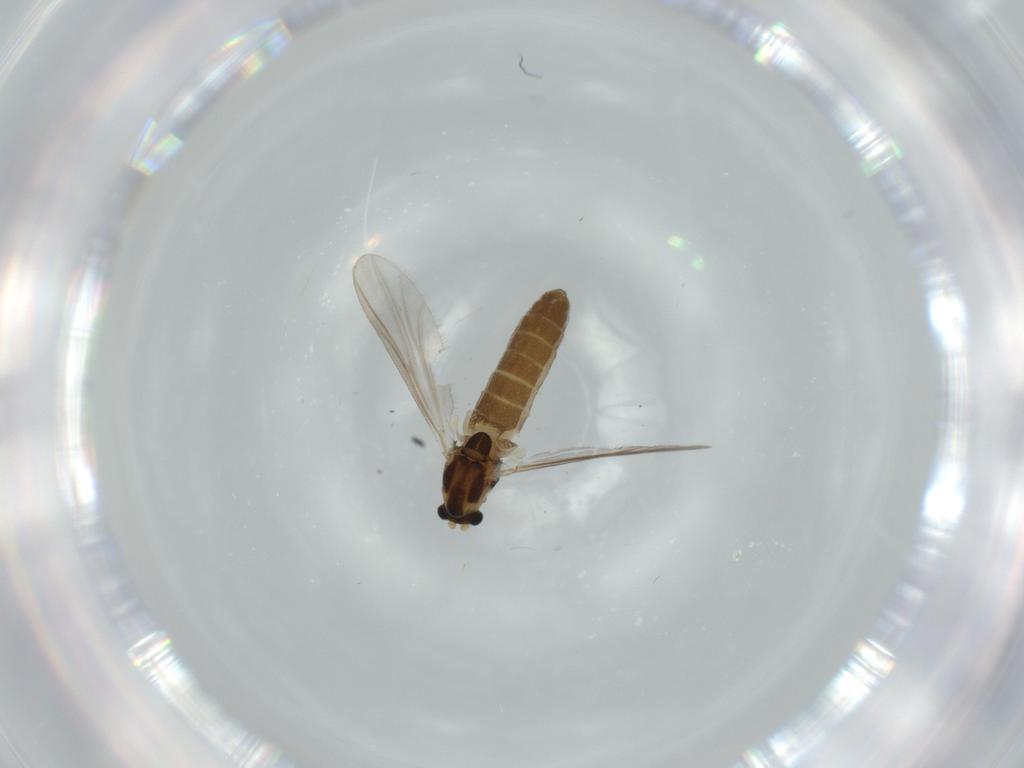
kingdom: Animalia
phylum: Arthropoda
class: Insecta
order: Diptera
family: Chironomidae
